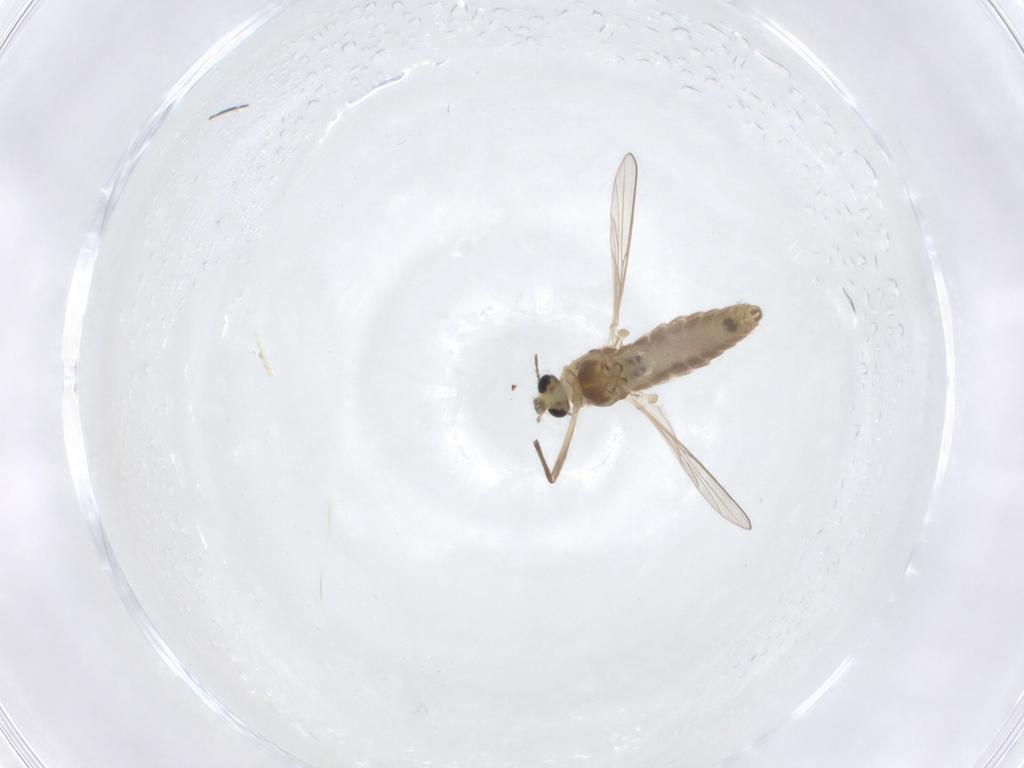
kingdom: Animalia
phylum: Arthropoda
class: Insecta
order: Diptera
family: Chironomidae
